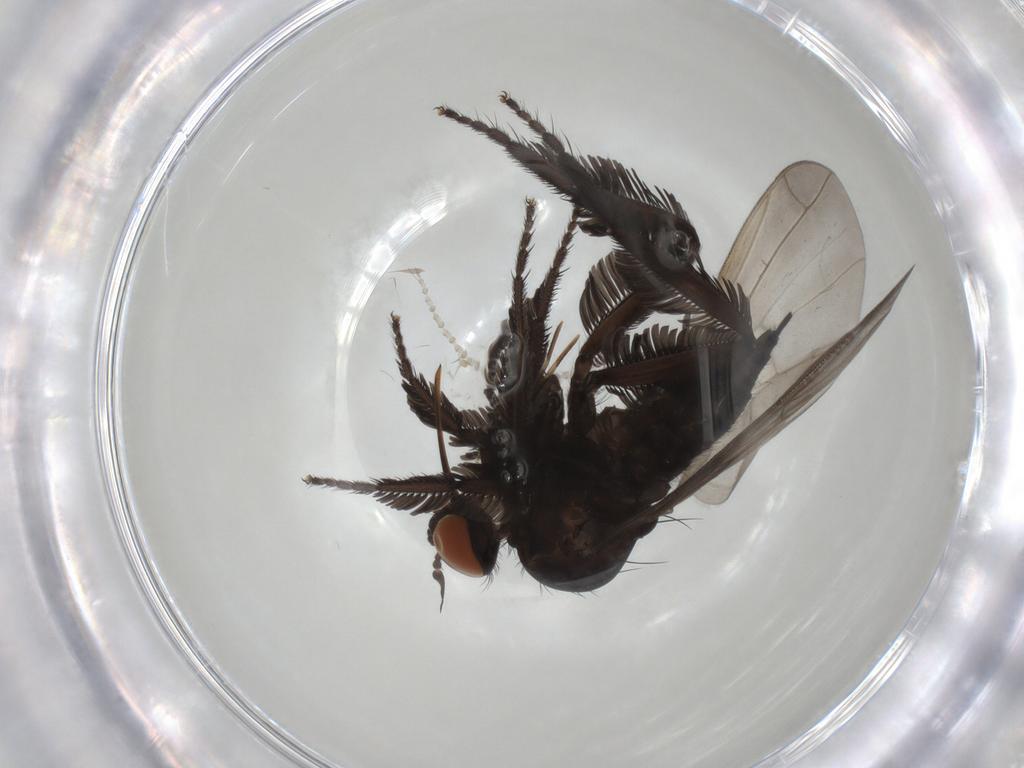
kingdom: Animalia
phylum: Arthropoda
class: Insecta
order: Diptera
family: Empididae
